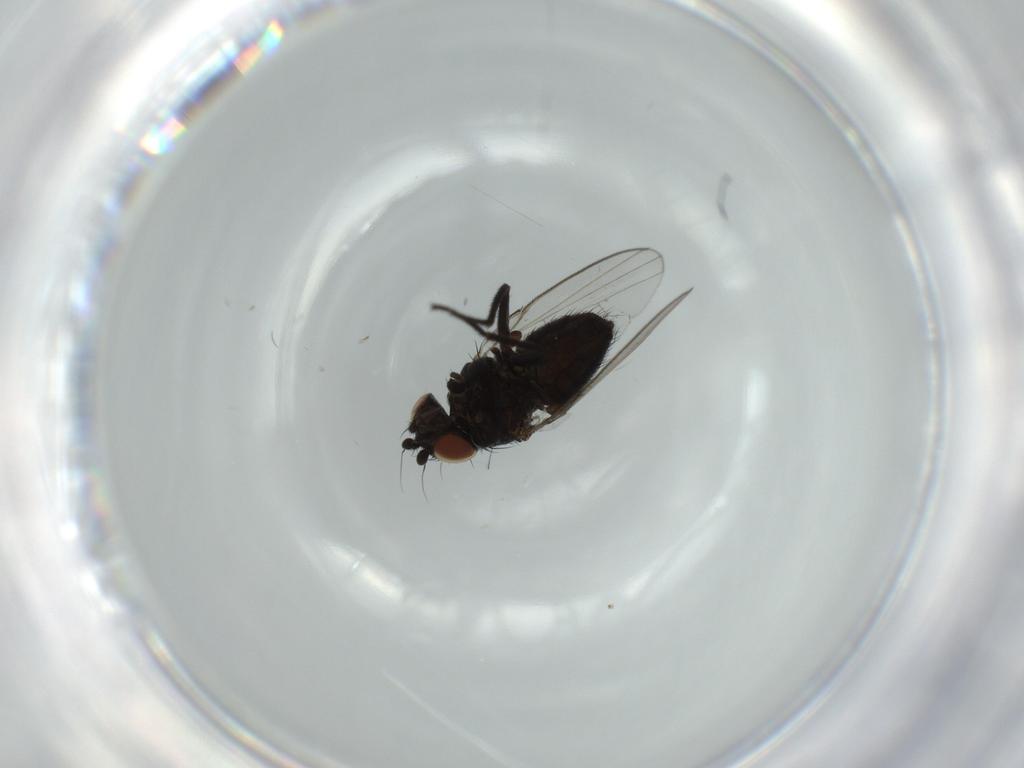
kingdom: Animalia
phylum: Arthropoda
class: Insecta
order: Diptera
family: Milichiidae
